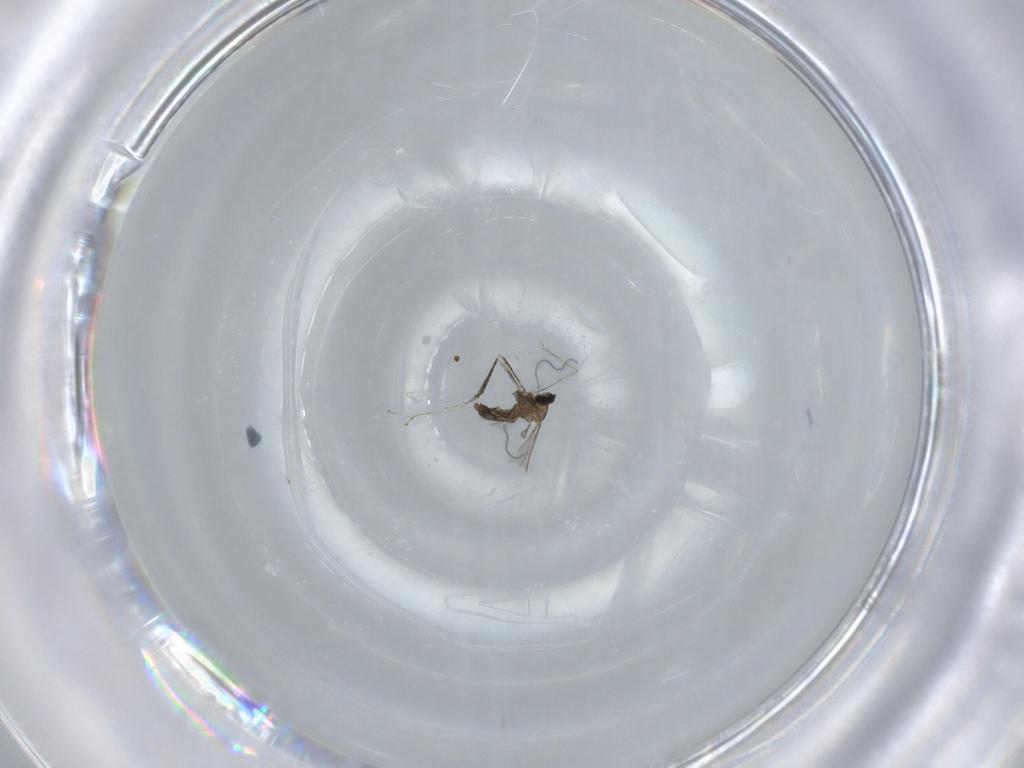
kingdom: Animalia
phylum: Arthropoda
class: Insecta
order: Diptera
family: Cecidomyiidae
